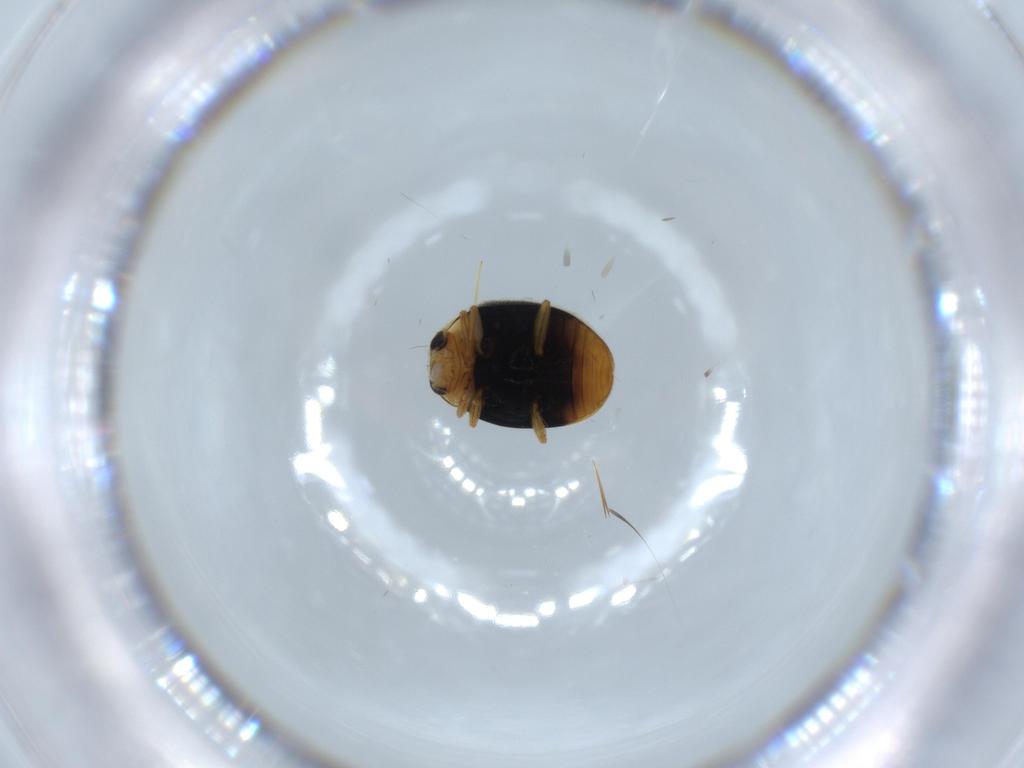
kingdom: Animalia
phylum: Arthropoda
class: Insecta
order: Coleoptera
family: Coccinellidae
